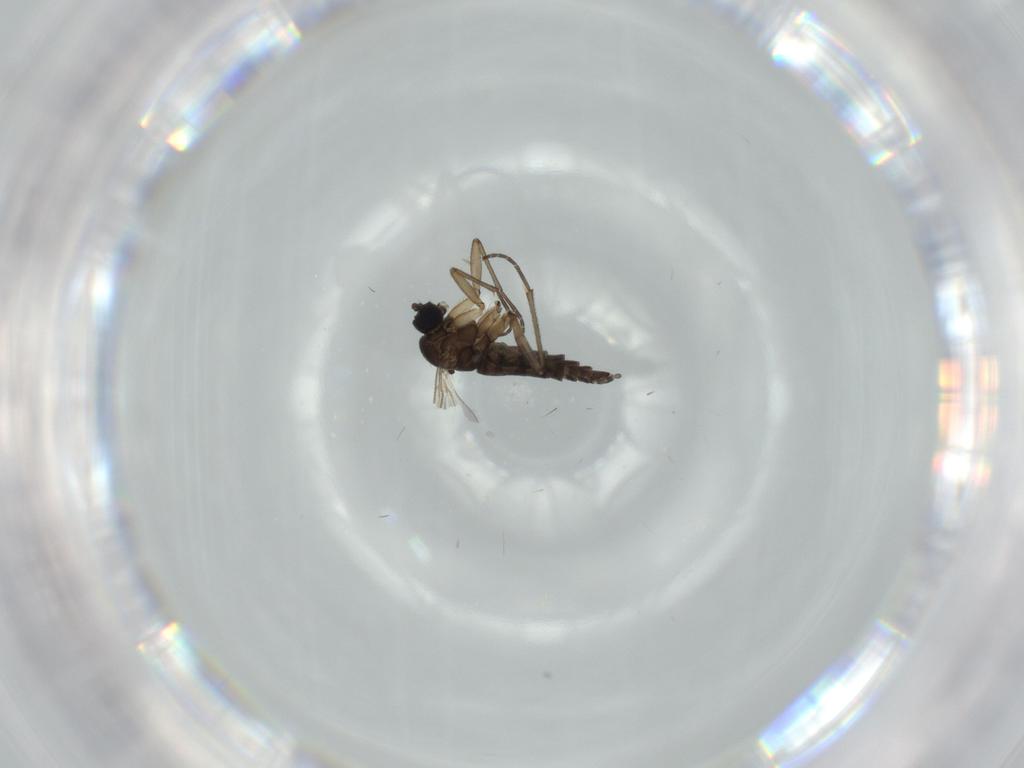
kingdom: Animalia
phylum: Arthropoda
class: Insecta
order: Diptera
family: Sciaridae
